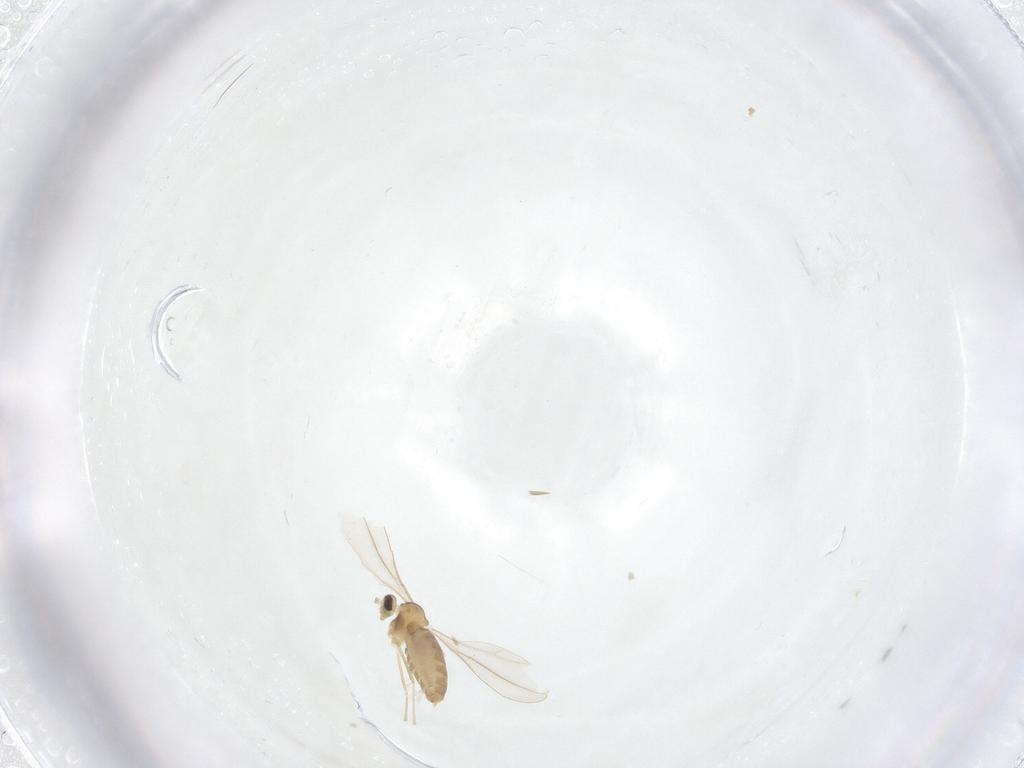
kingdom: Animalia
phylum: Arthropoda
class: Insecta
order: Diptera
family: Cecidomyiidae
